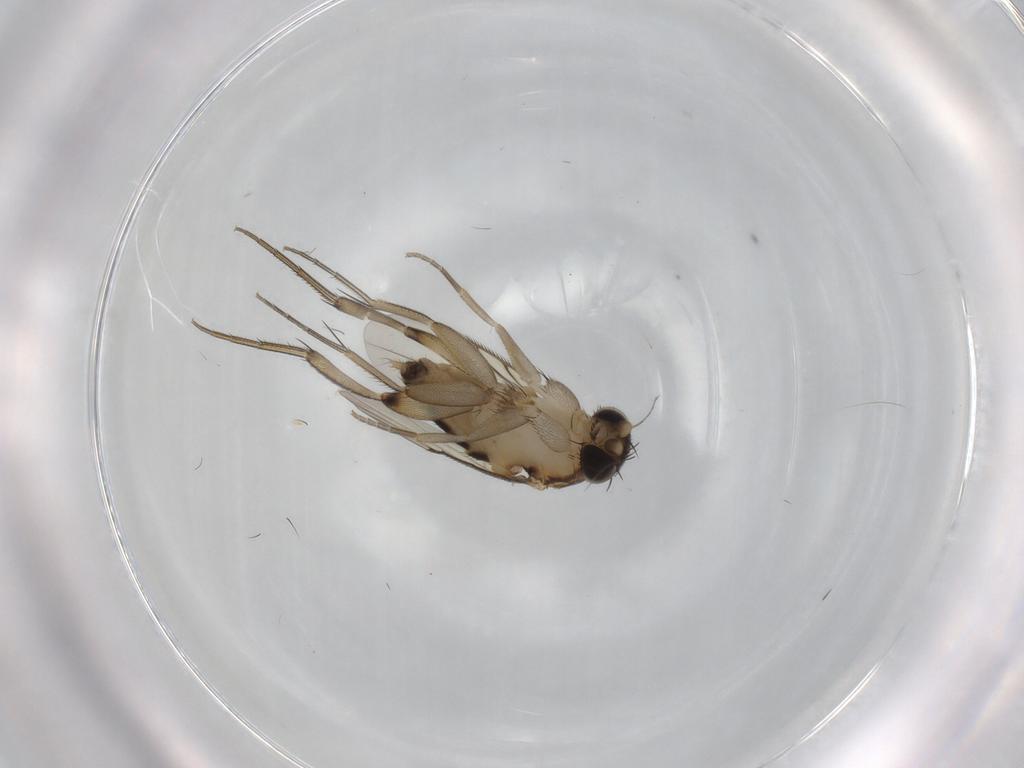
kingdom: Animalia
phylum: Arthropoda
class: Insecta
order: Diptera
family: Phoridae
